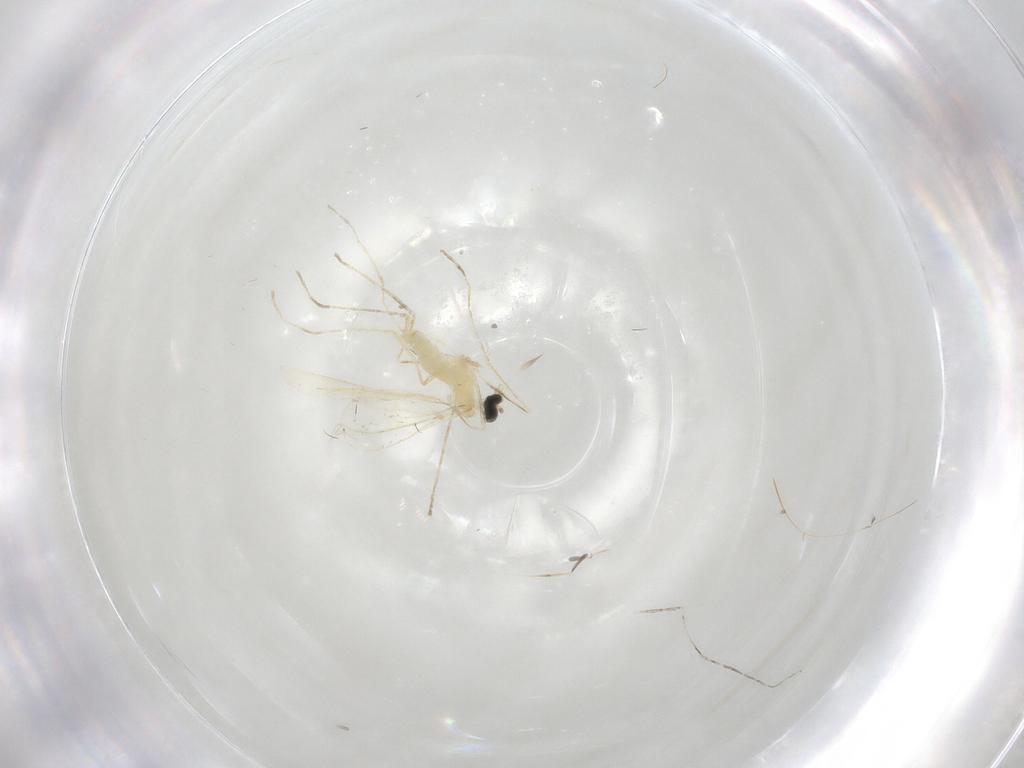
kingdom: Animalia
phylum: Arthropoda
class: Insecta
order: Diptera
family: Cecidomyiidae
